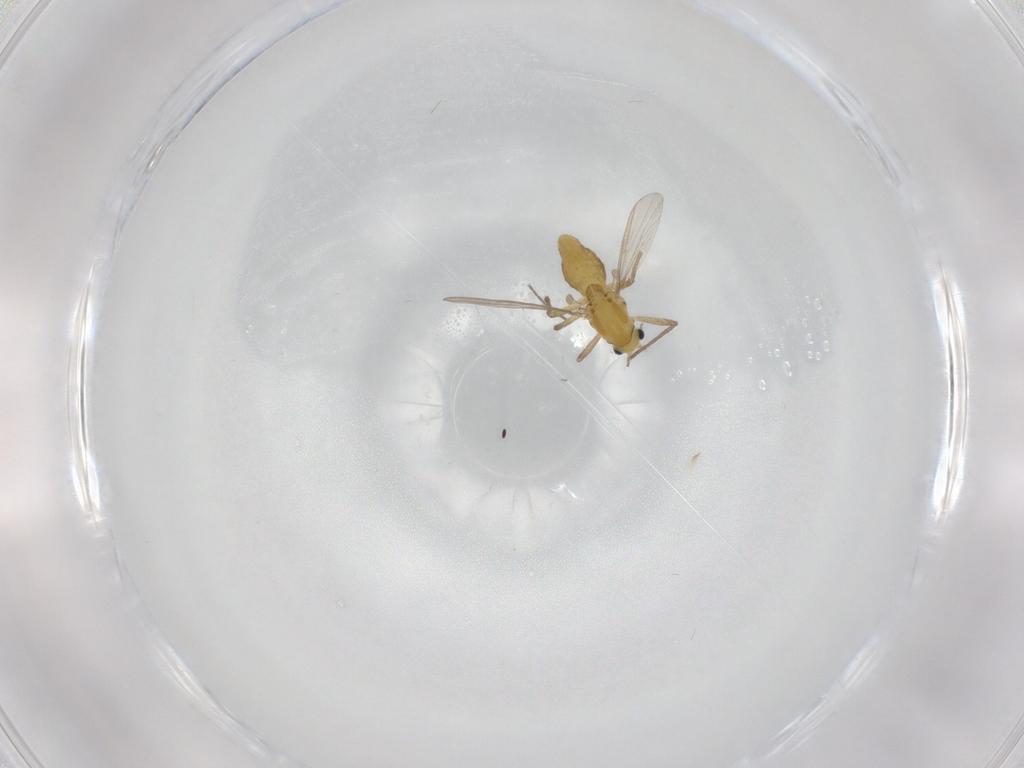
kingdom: Animalia
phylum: Arthropoda
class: Insecta
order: Diptera
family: Chironomidae
